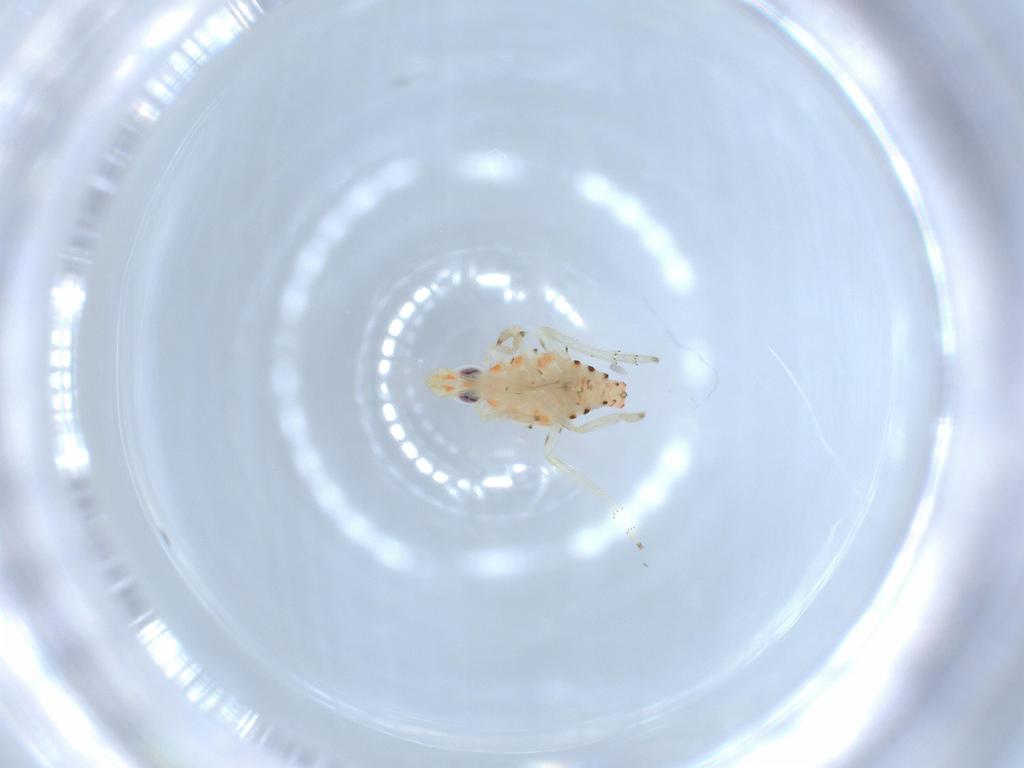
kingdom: Animalia
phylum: Arthropoda
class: Insecta
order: Hemiptera
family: Tropiduchidae
